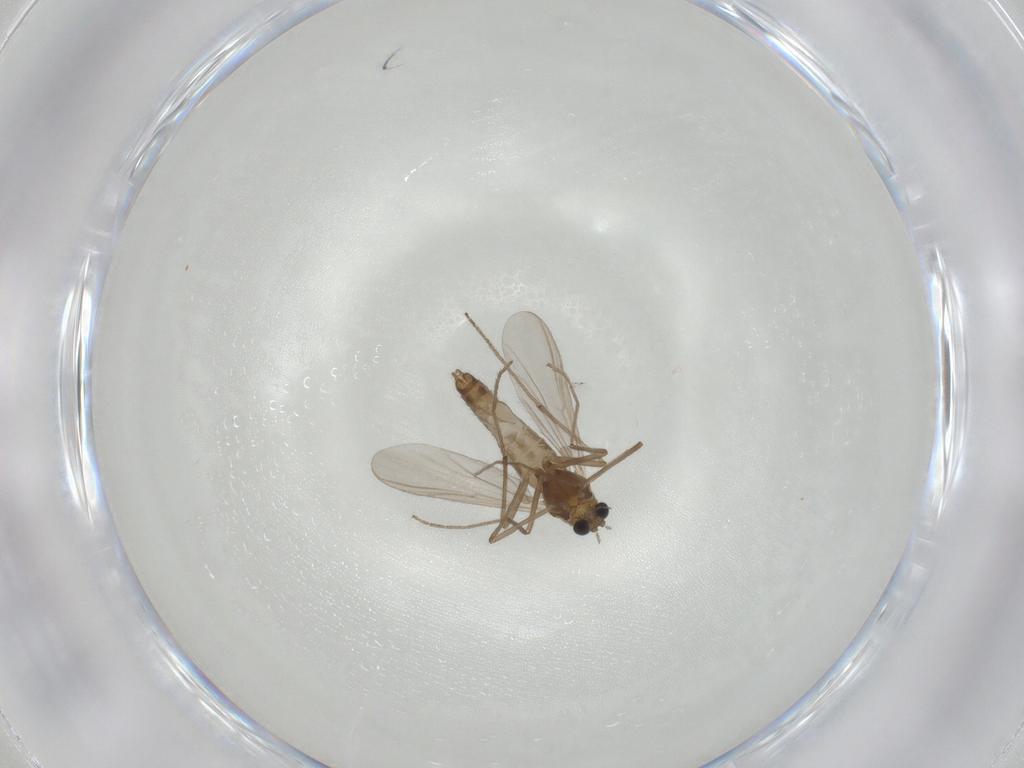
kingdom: Animalia
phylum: Arthropoda
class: Insecta
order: Diptera
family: Chironomidae
